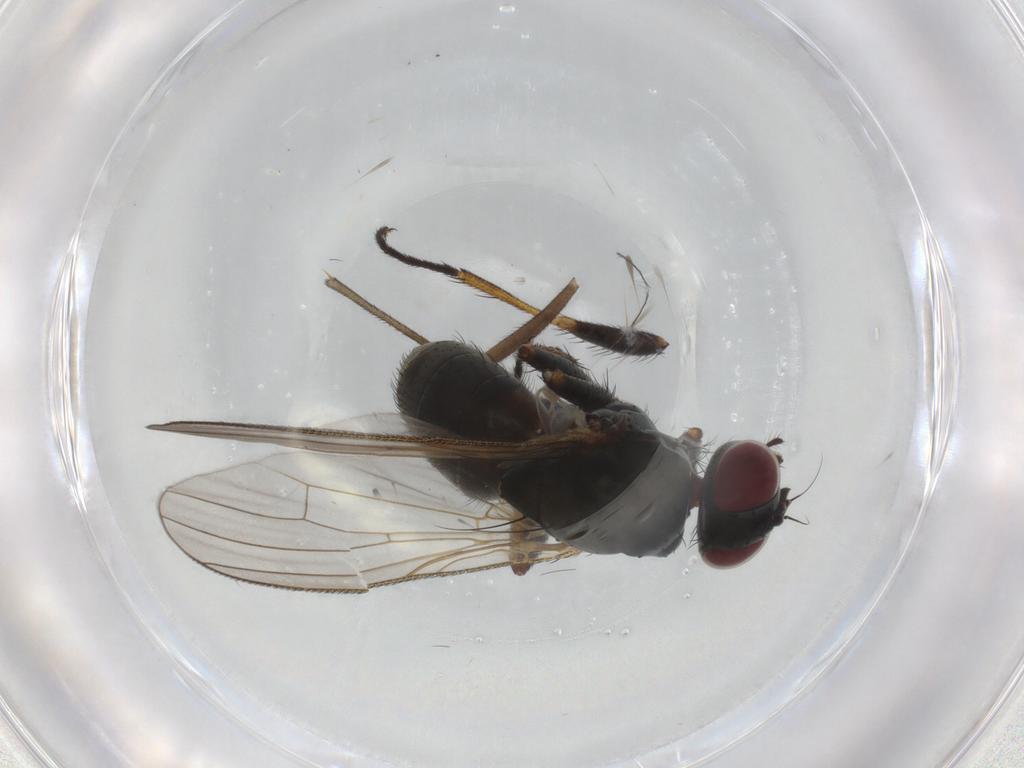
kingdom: Animalia
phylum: Arthropoda
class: Insecta
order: Diptera
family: Muscidae
